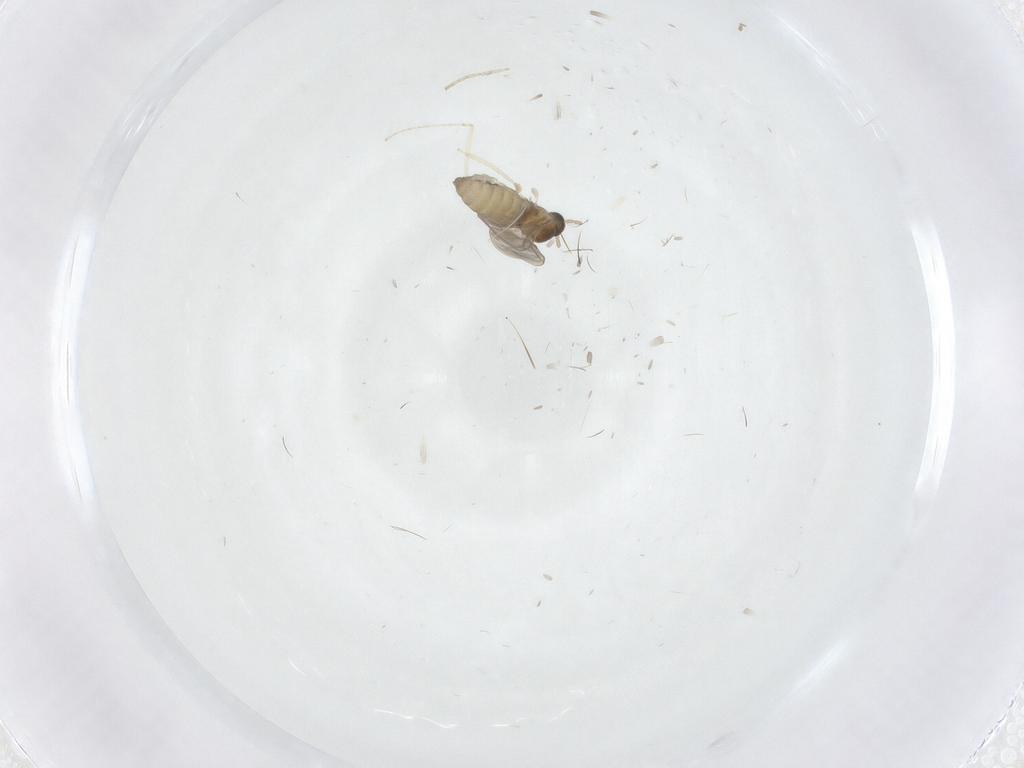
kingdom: Animalia
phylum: Arthropoda
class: Insecta
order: Diptera
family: Cecidomyiidae
